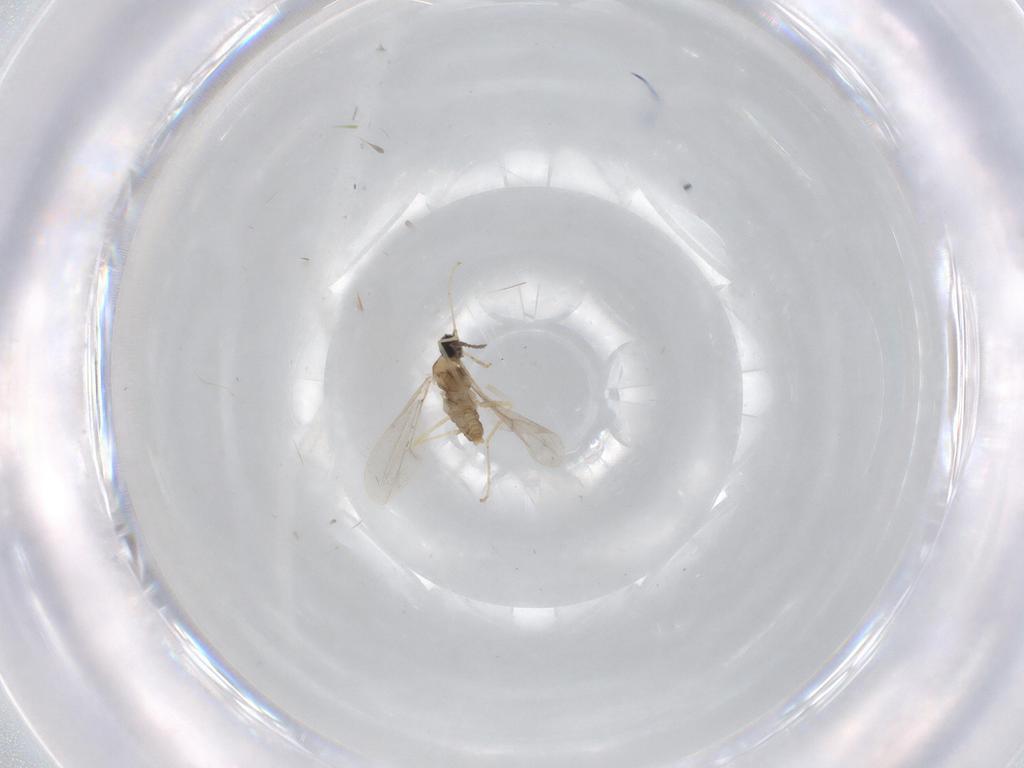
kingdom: Animalia
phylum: Arthropoda
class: Insecta
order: Diptera
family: Cecidomyiidae
